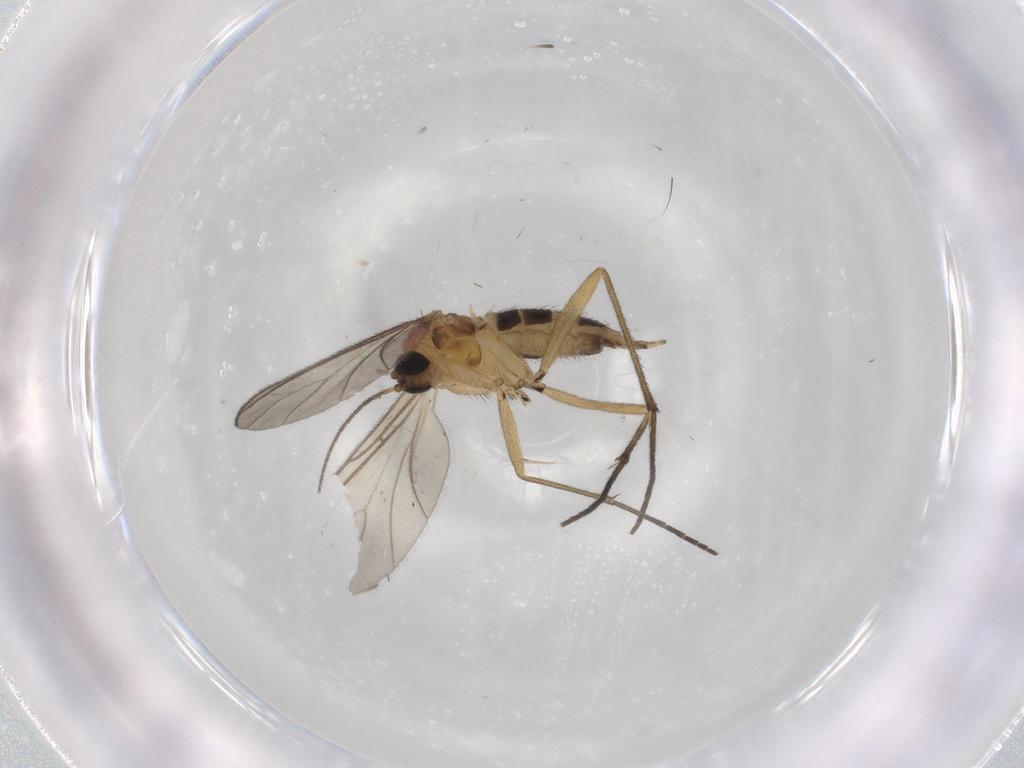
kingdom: Animalia
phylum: Arthropoda
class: Insecta
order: Diptera
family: Sciaridae
